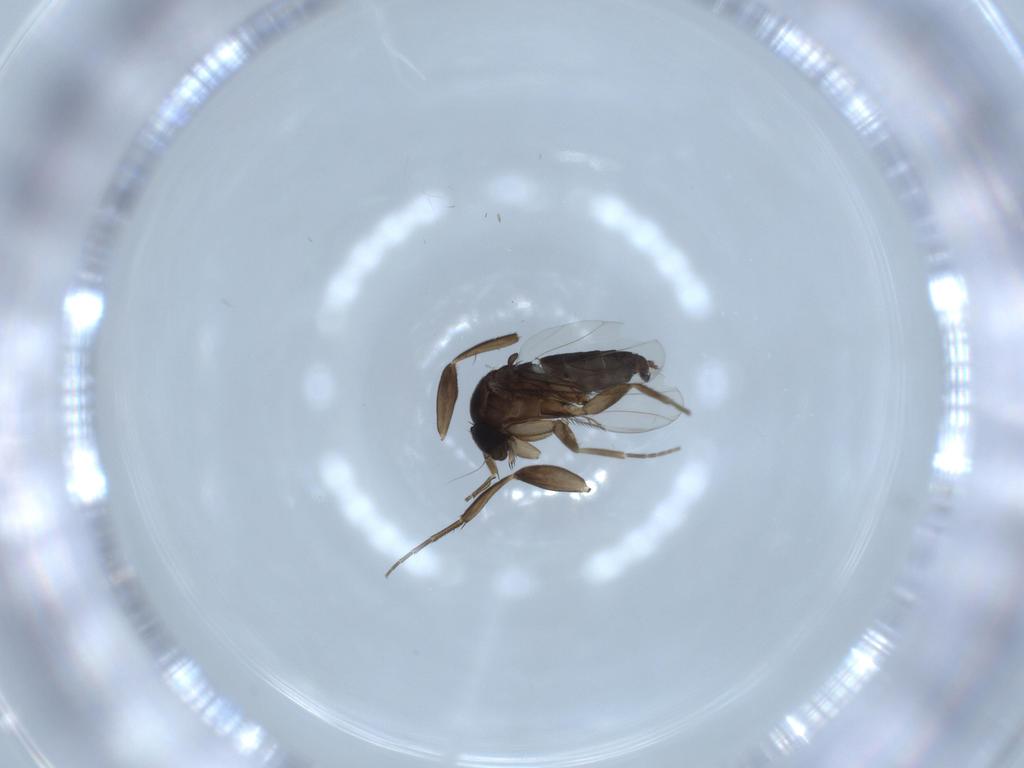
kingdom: Animalia
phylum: Arthropoda
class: Insecta
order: Diptera
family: Phoridae
